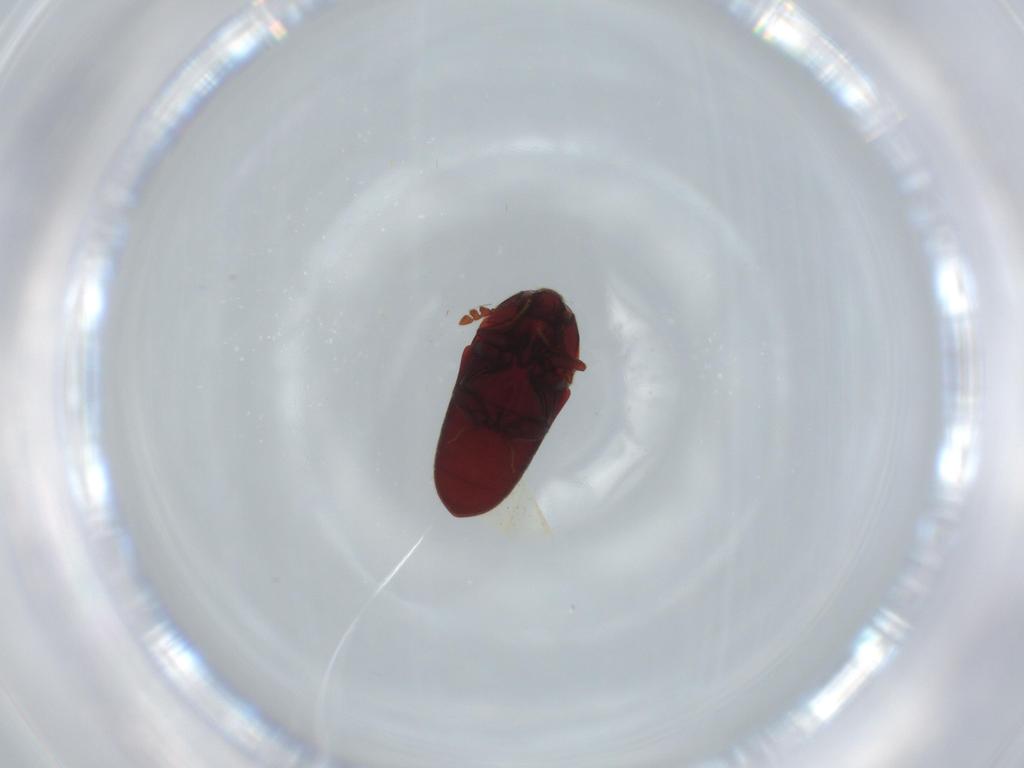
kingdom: Animalia
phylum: Arthropoda
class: Insecta
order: Coleoptera
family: Throscidae
